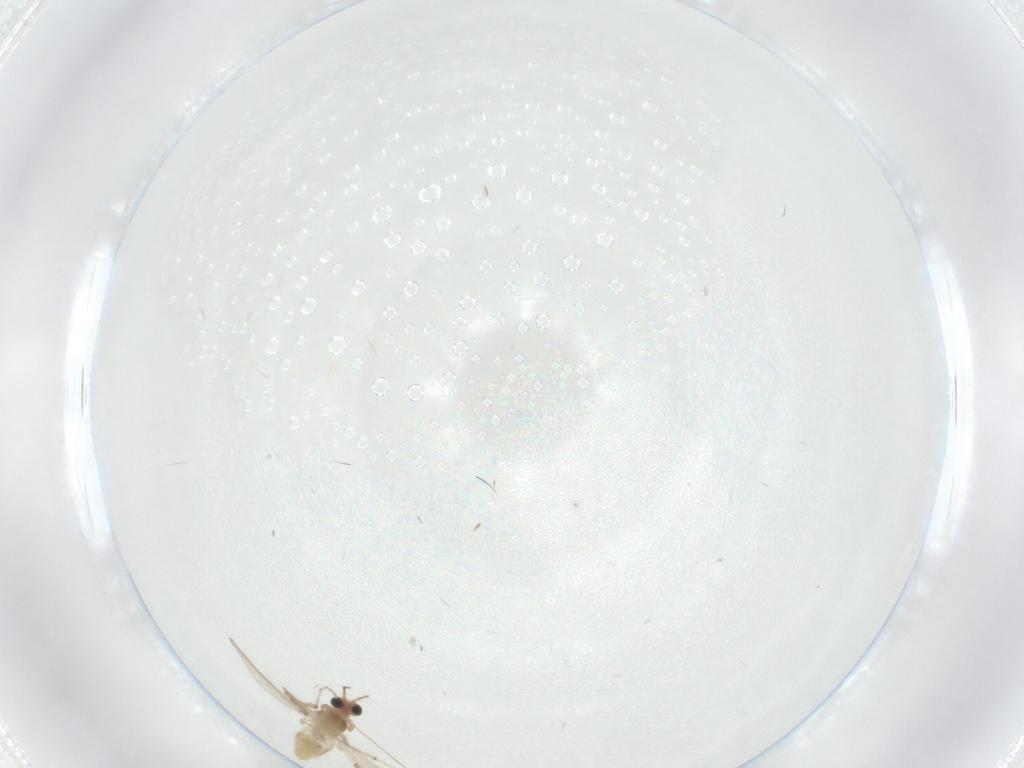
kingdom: Animalia
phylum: Arthropoda
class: Insecta
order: Diptera
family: Chironomidae
